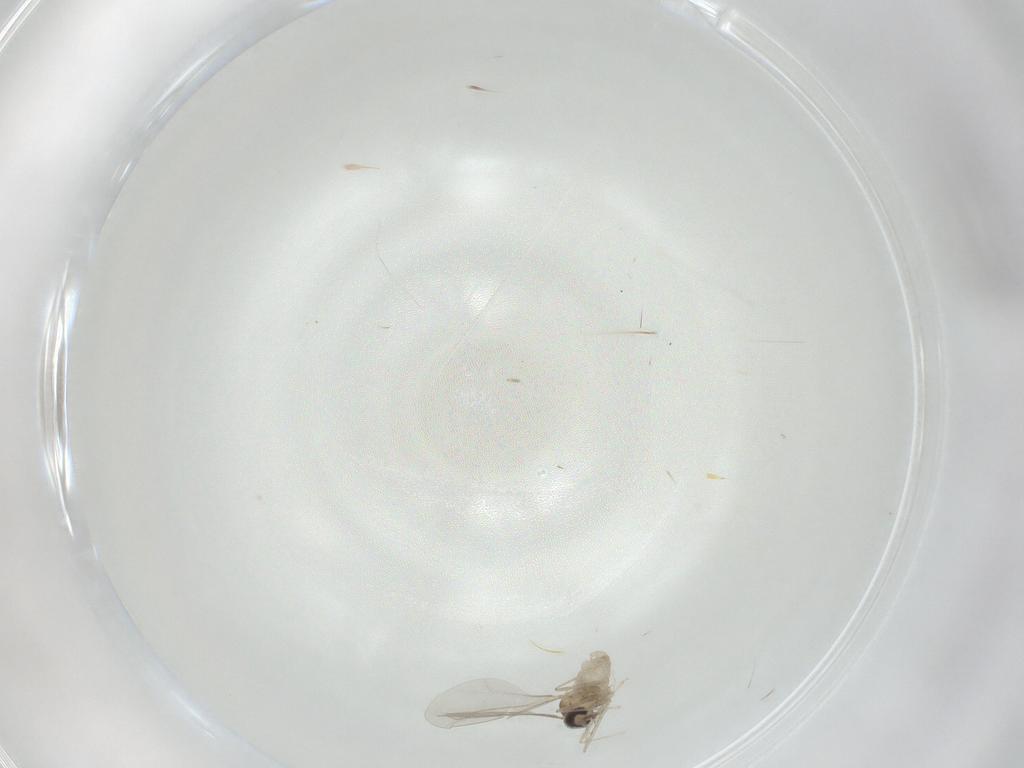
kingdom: Animalia
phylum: Arthropoda
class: Insecta
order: Diptera
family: Cecidomyiidae
